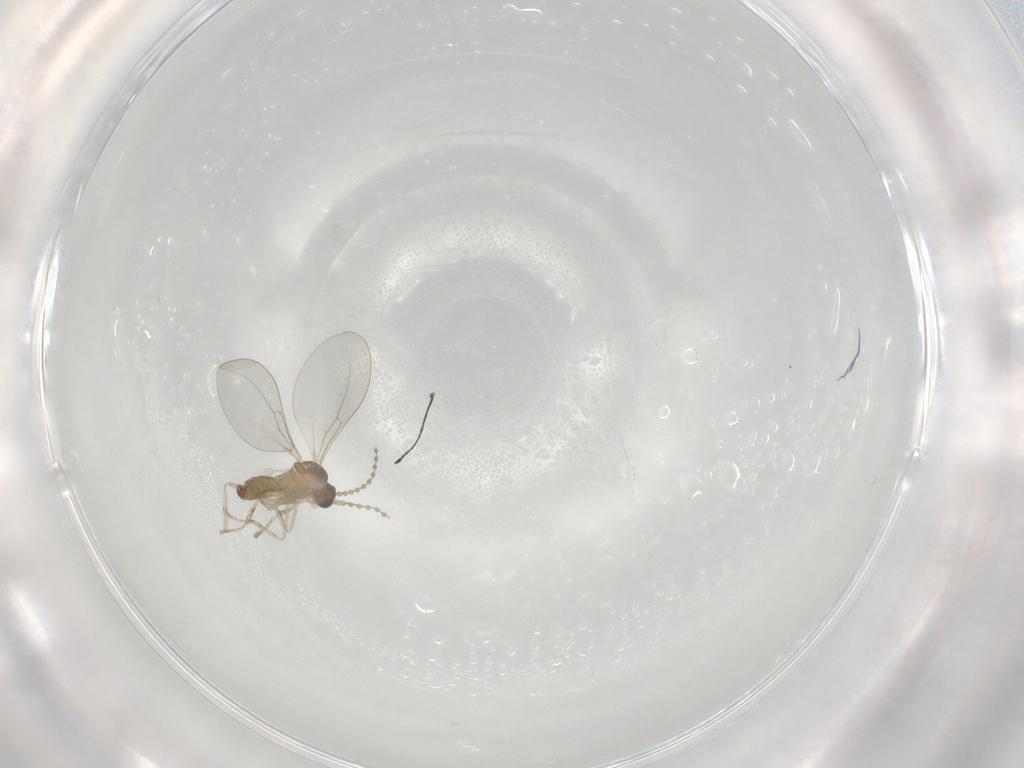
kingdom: Animalia
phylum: Arthropoda
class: Insecta
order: Diptera
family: Cecidomyiidae
